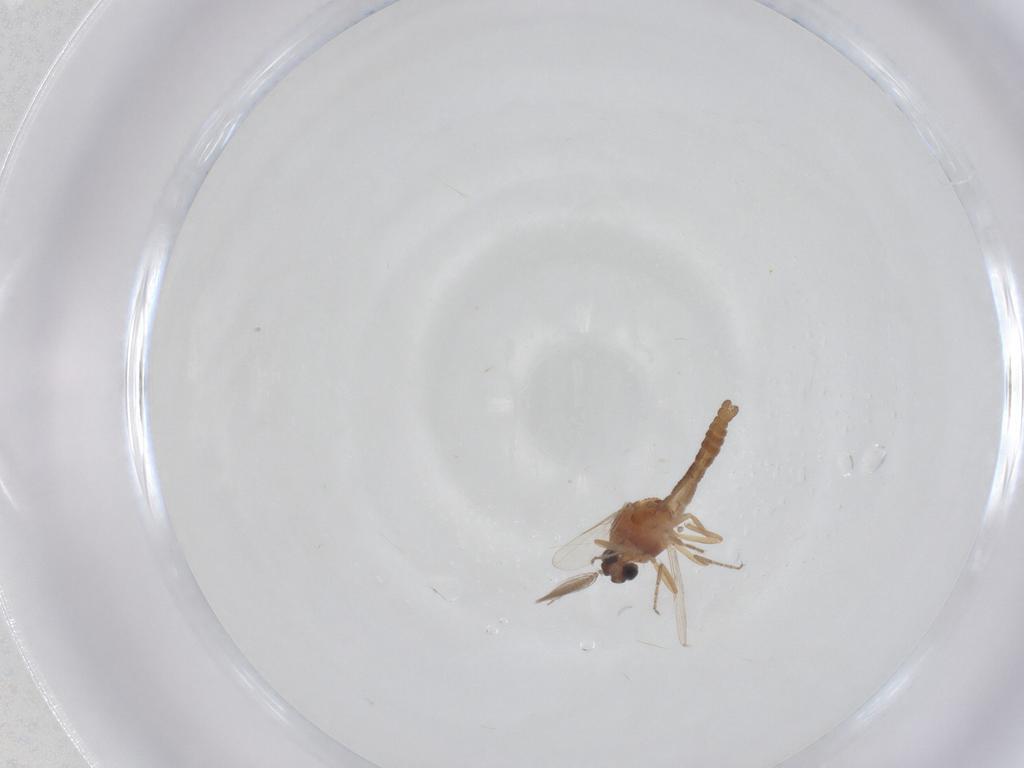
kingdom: Animalia
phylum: Arthropoda
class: Insecta
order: Diptera
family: Ceratopogonidae
